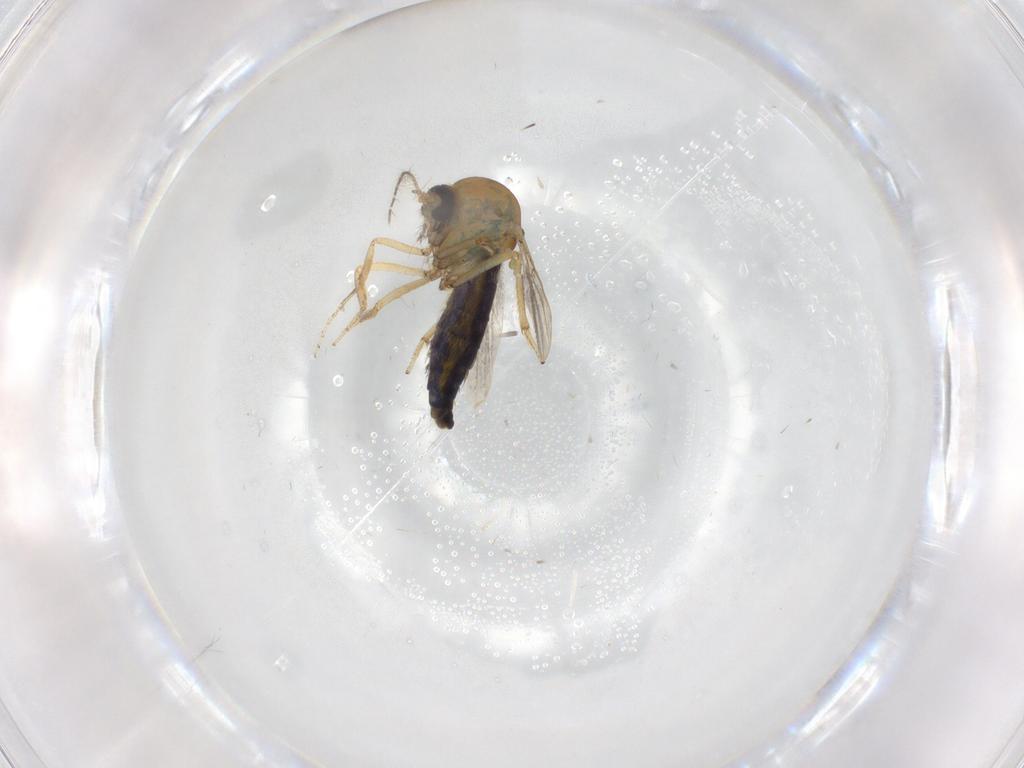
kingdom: Animalia
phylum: Arthropoda
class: Insecta
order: Diptera
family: Ceratopogonidae
